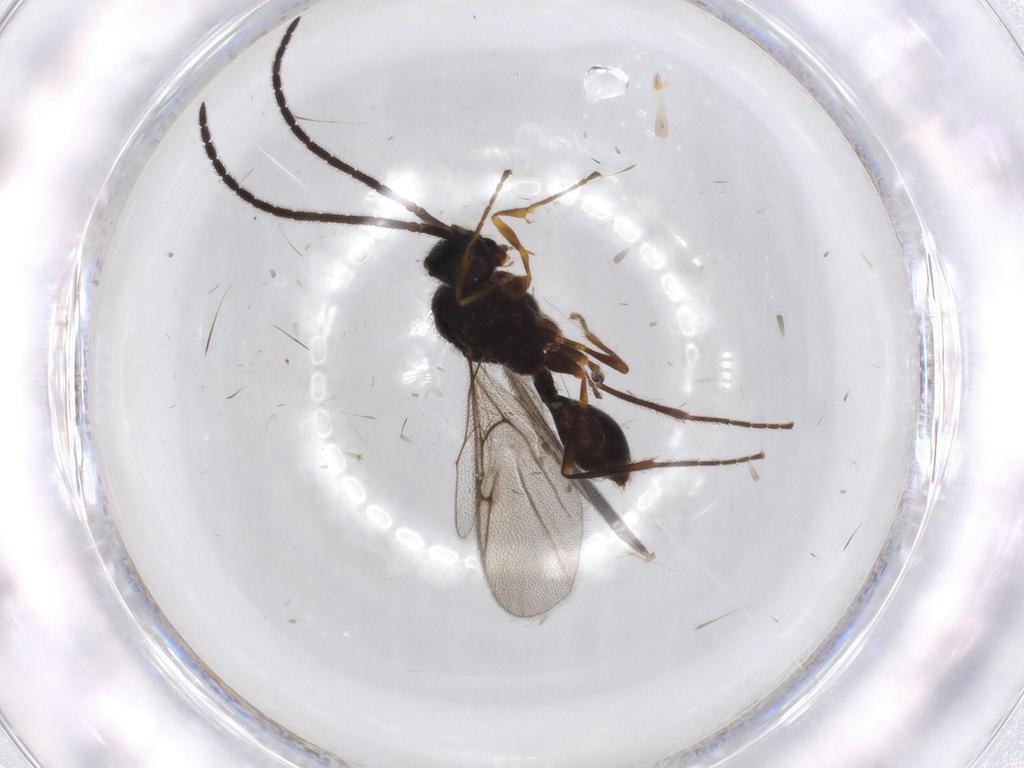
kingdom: Animalia
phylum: Arthropoda
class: Insecta
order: Hymenoptera
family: Diapriidae
